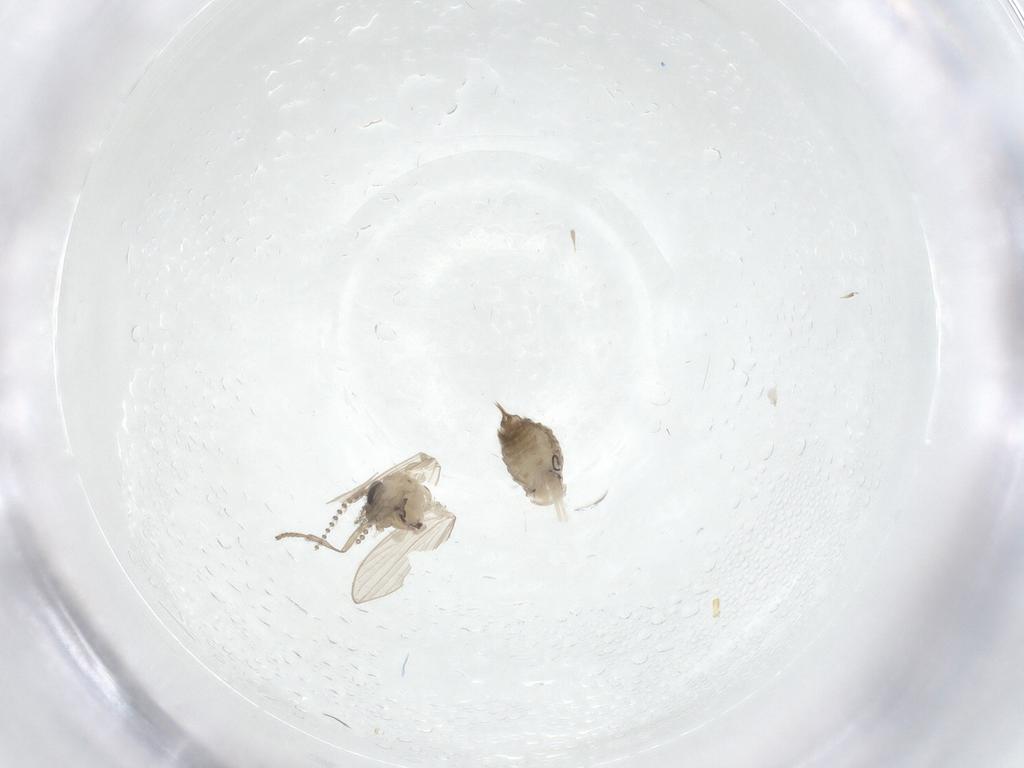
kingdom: Animalia
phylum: Arthropoda
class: Insecta
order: Diptera
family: Psychodidae
